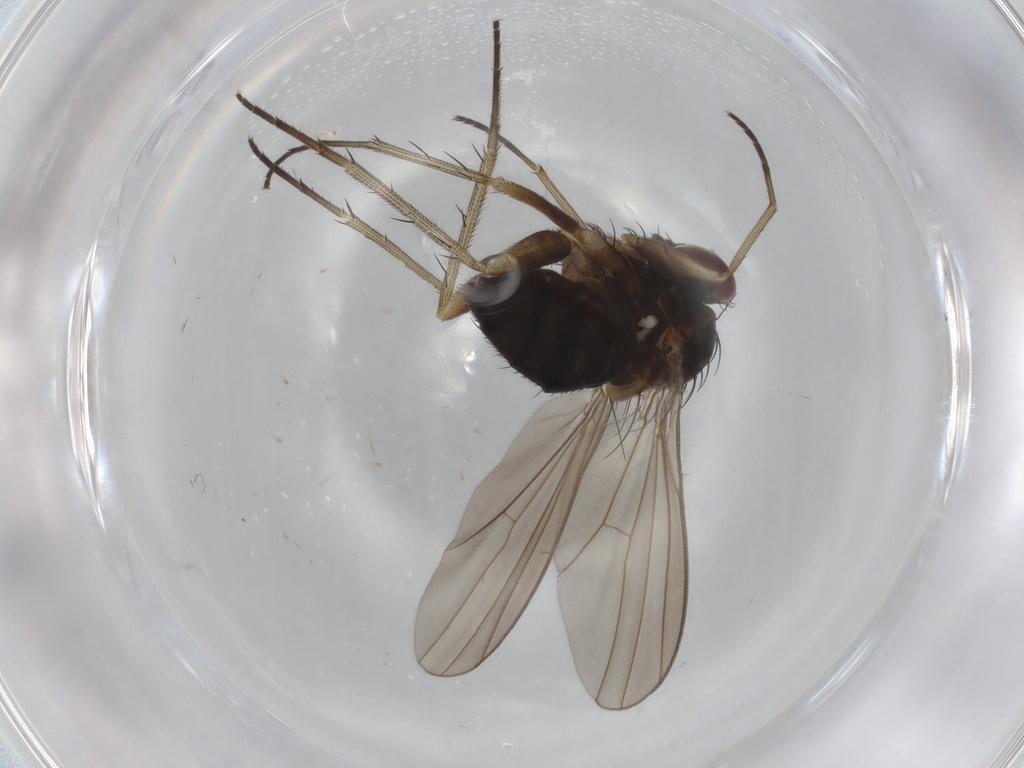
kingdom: Animalia
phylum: Arthropoda
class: Insecta
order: Diptera
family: Dolichopodidae
